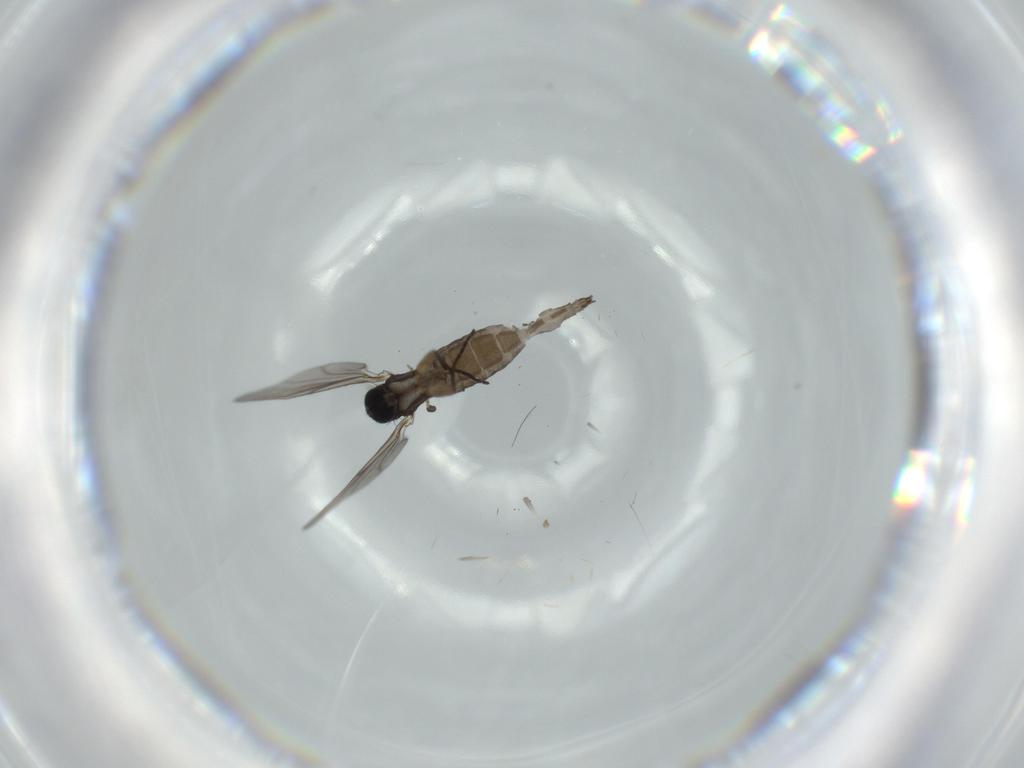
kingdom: Animalia
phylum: Arthropoda
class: Insecta
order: Diptera
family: Sciaridae
